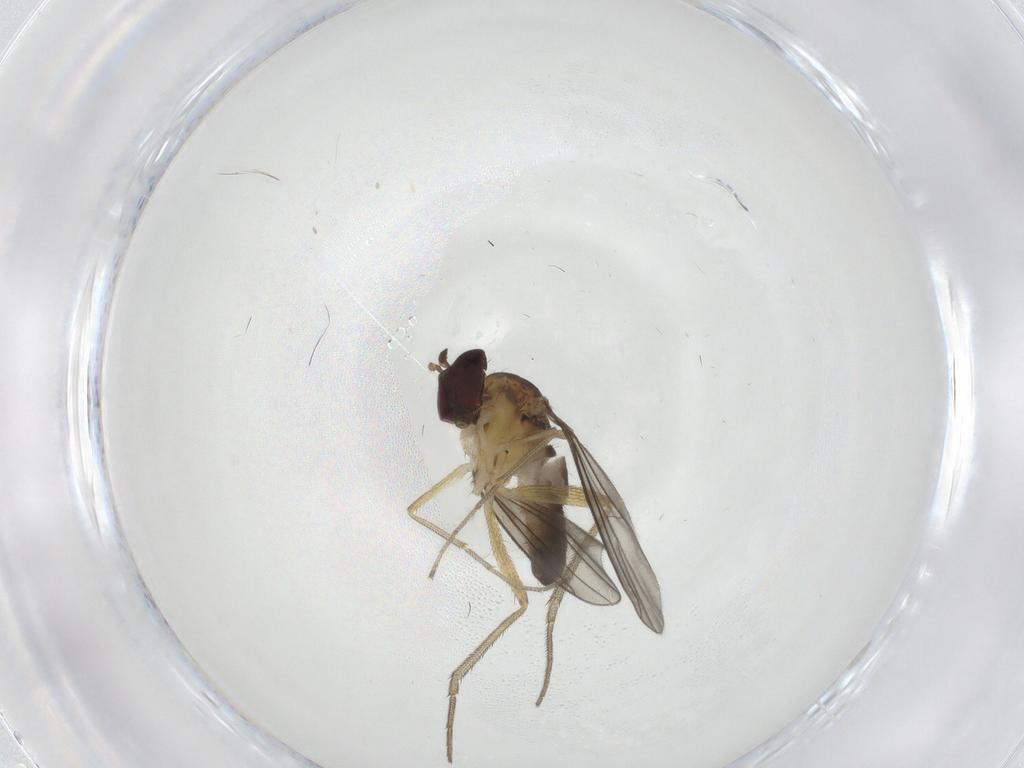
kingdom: Animalia
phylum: Arthropoda
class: Insecta
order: Diptera
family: Dolichopodidae
